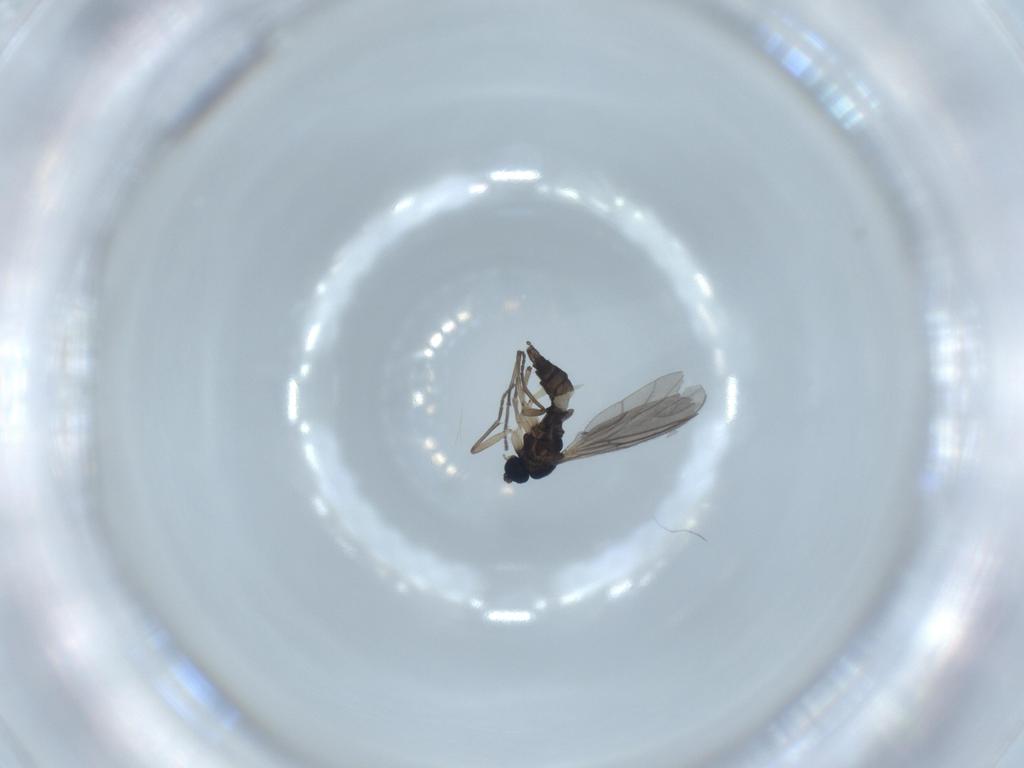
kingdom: Animalia
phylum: Arthropoda
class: Insecta
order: Diptera
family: Sciaridae
